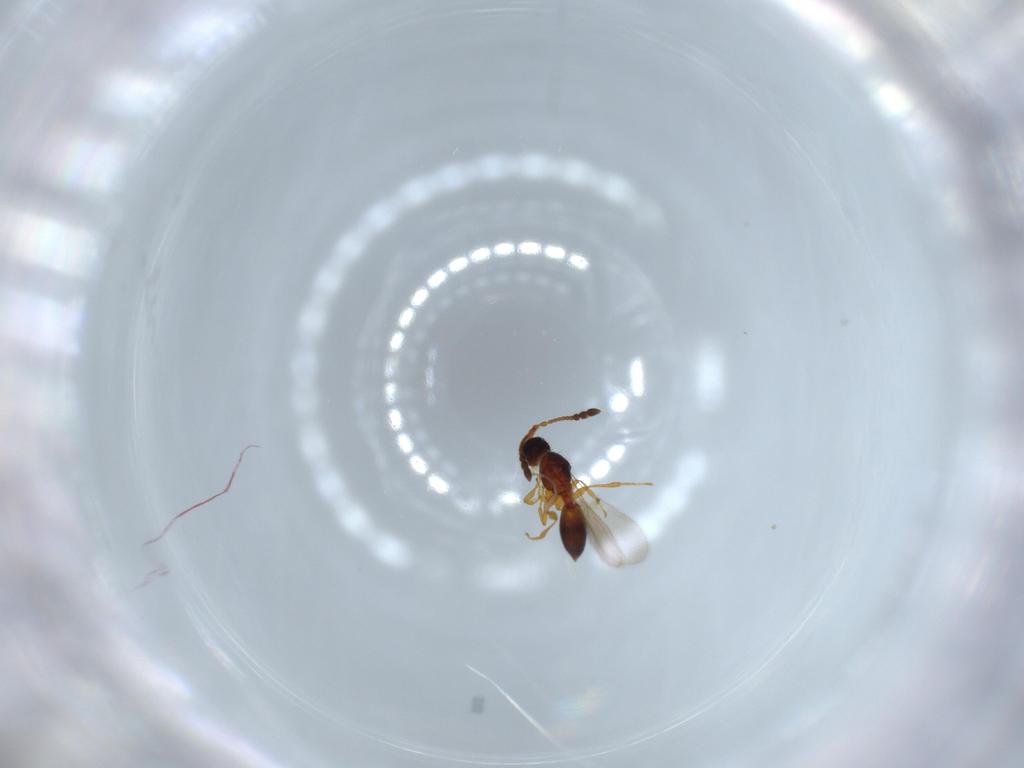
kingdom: Animalia
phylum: Arthropoda
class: Insecta
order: Hymenoptera
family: Diapriidae
